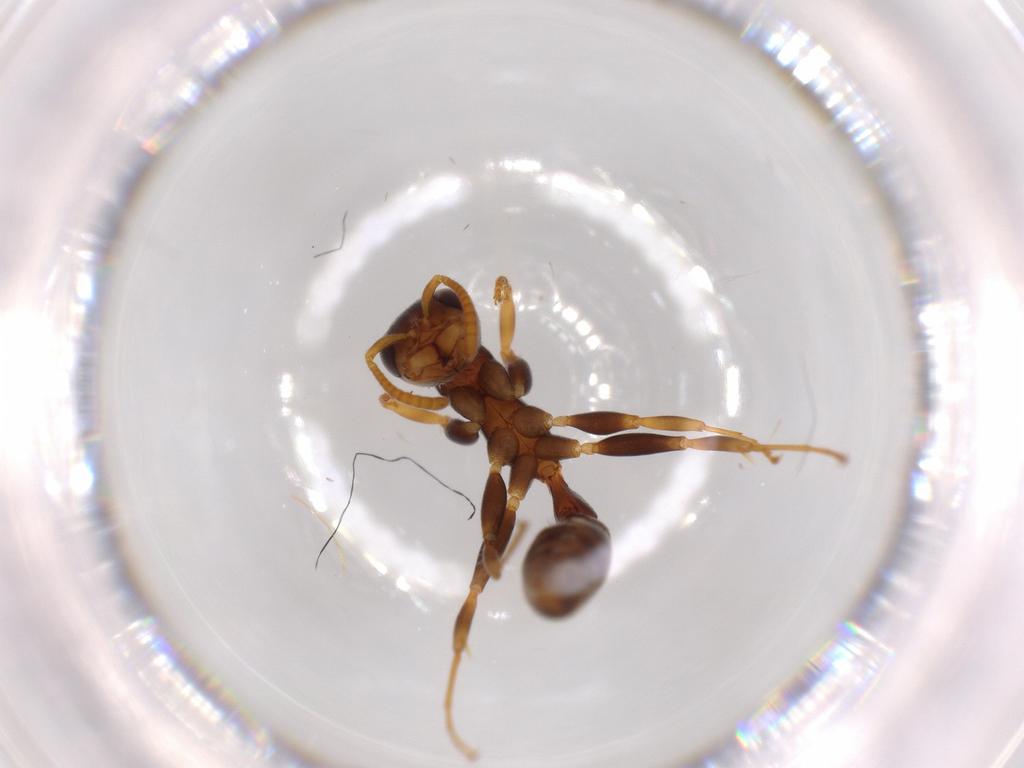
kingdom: Animalia
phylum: Arthropoda
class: Insecta
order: Hymenoptera
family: Formicidae
